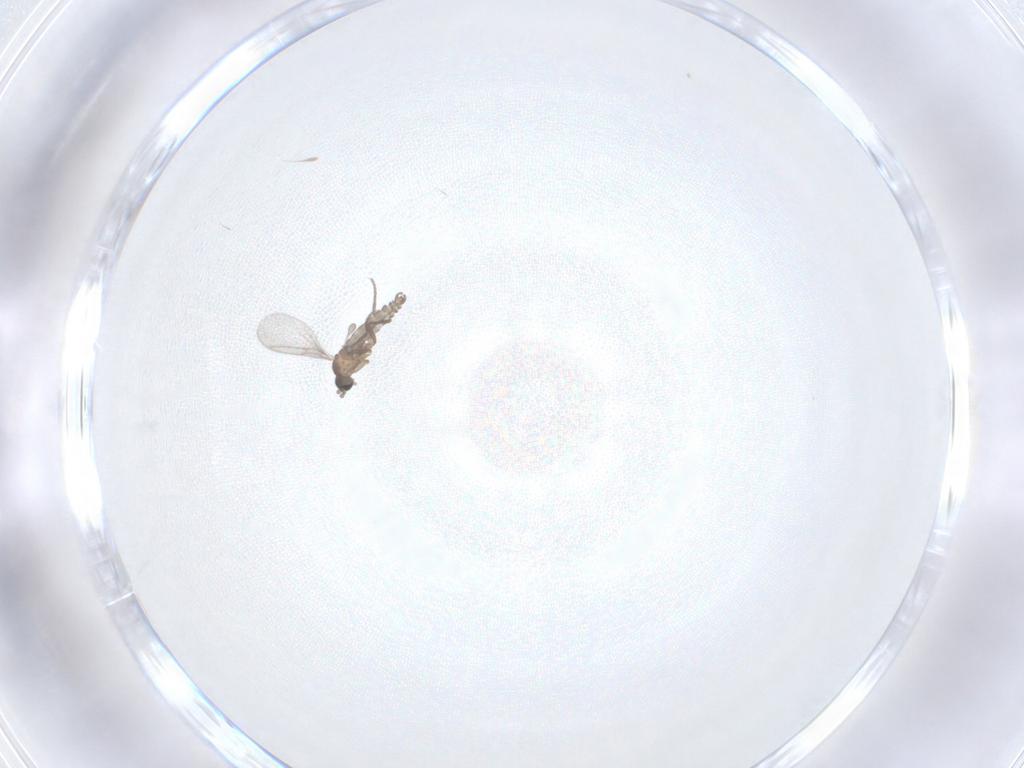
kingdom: Animalia
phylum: Arthropoda
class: Insecta
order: Diptera
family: Sciaridae
